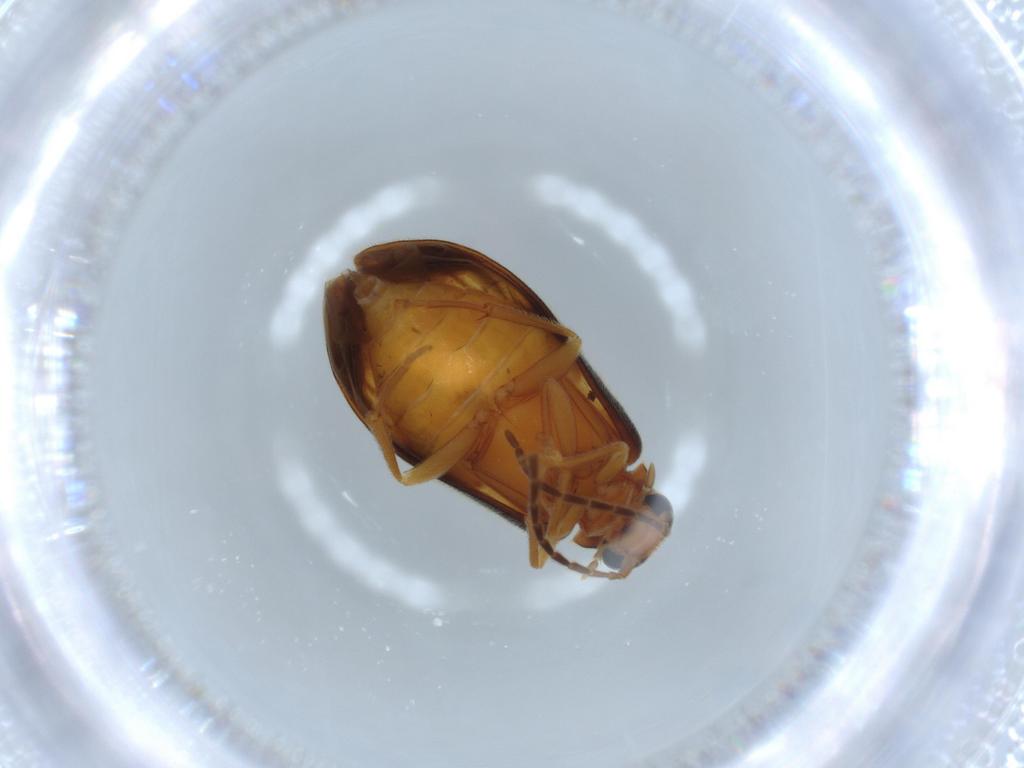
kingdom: Animalia
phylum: Arthropoda
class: Insecta
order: Coleoptera
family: Scraptiidae
